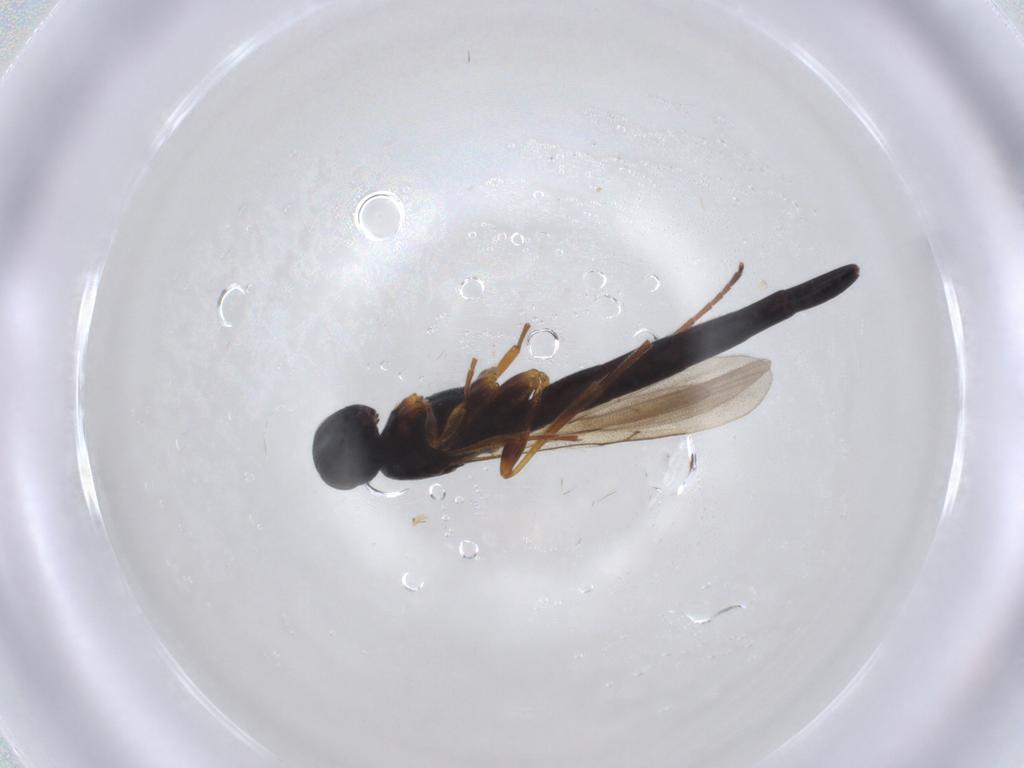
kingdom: Animalia
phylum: Arthropoda
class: Insecta
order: Hymenoptera
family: Scelionidae
